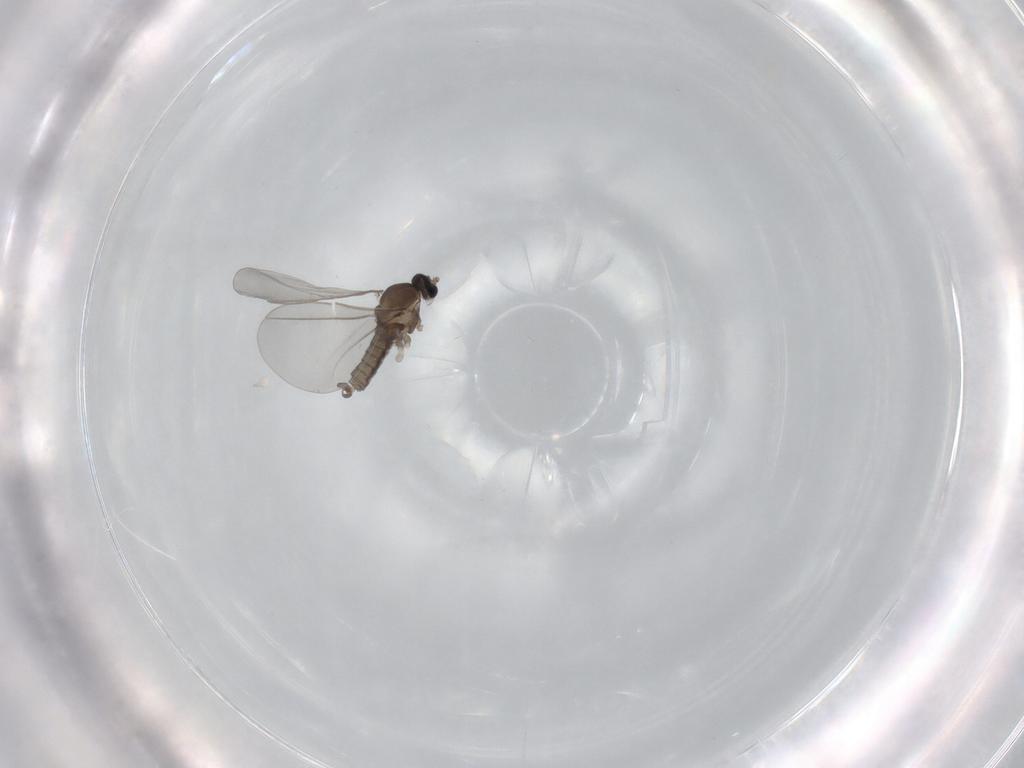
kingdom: Animalia
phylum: Arthropoda
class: Insecta
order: Diptera
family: Cecidomyiidae
